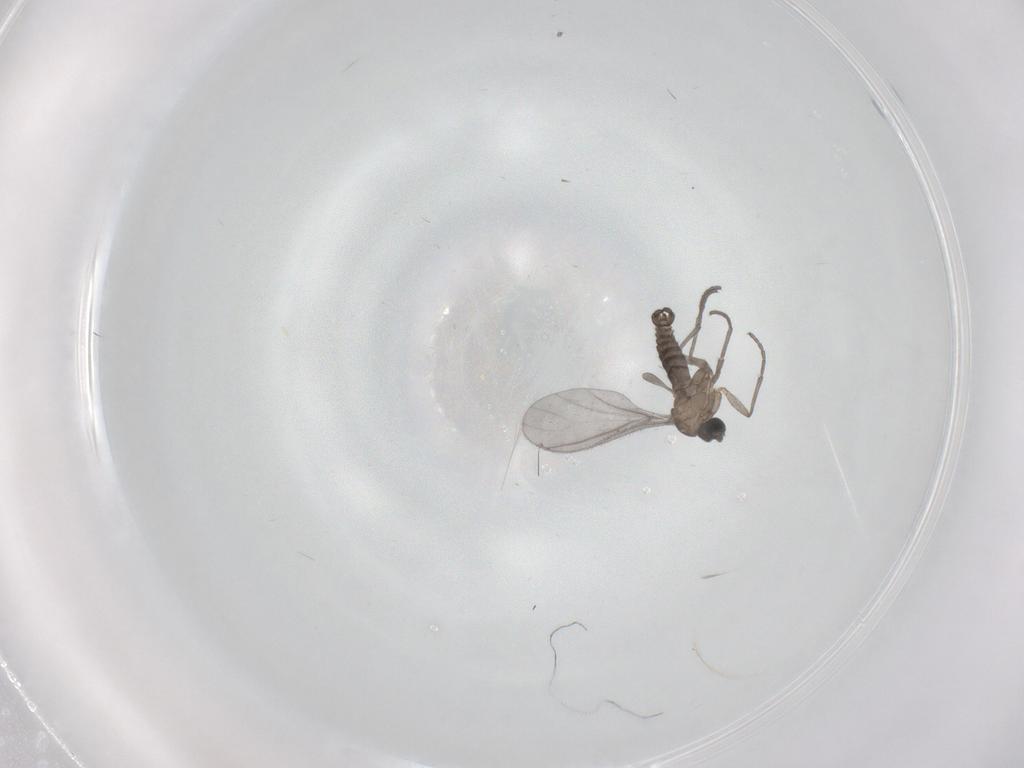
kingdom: Animalia
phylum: Arthropoda
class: Insecta
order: Diptera
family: Sciaridae
